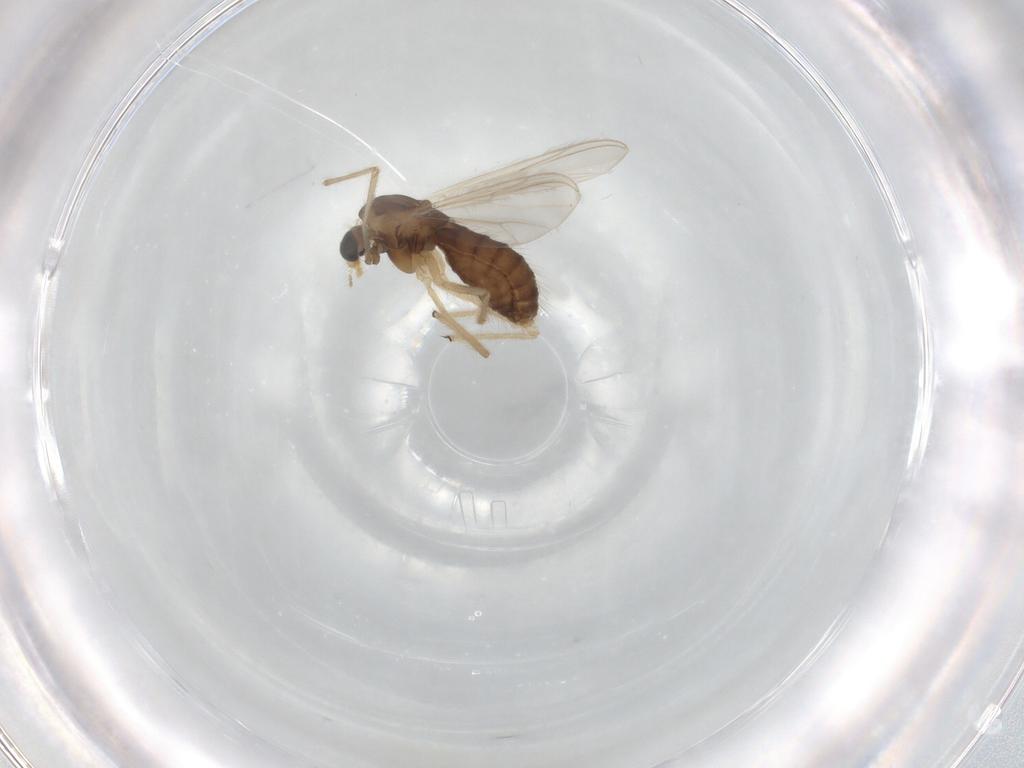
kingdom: Animalia
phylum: Arthropoda
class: Insecta
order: Diptera
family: Chironomidae
